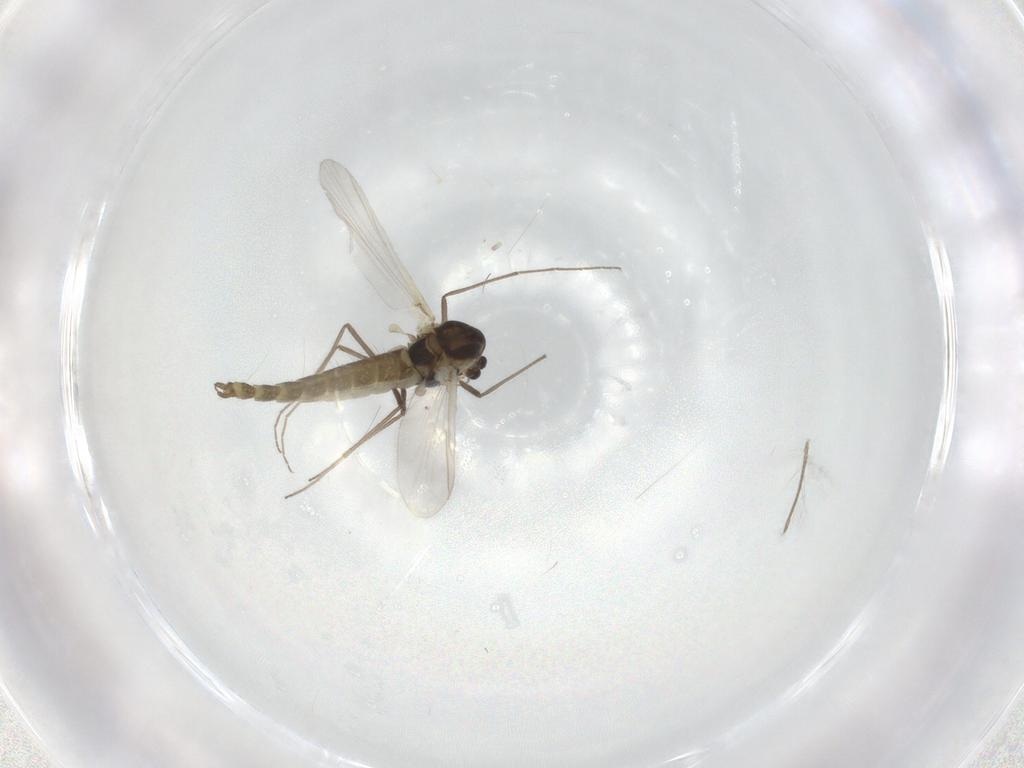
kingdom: Animalia
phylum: Arthropoda
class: Insecta
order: Diptera
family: Chironomidae
